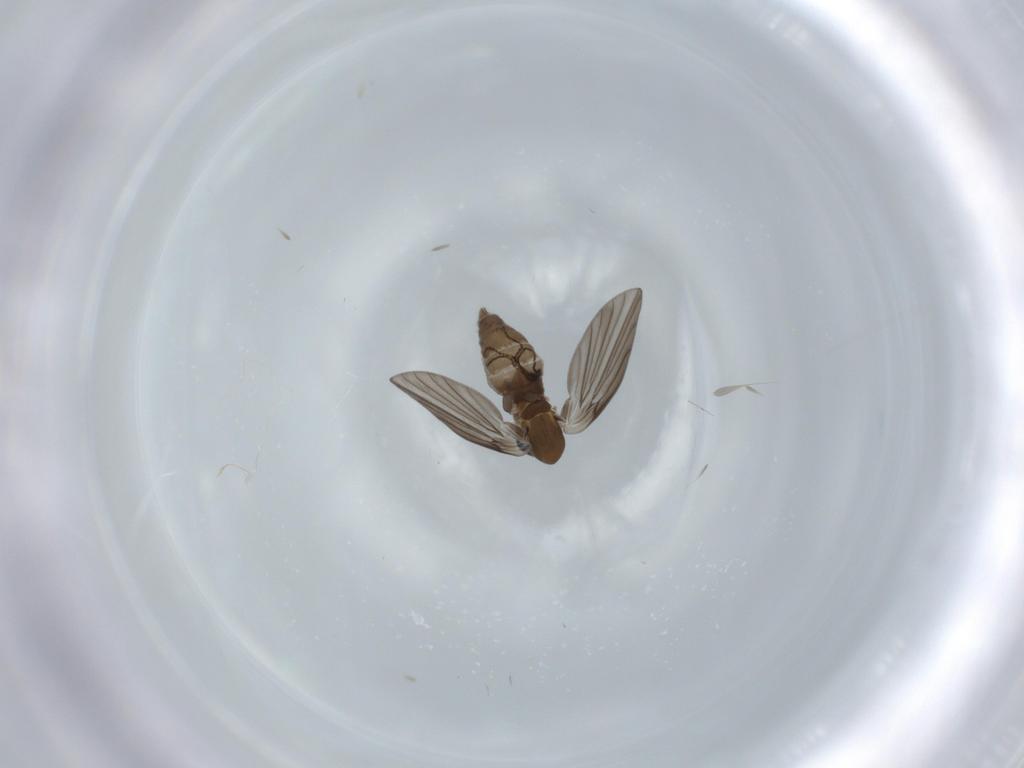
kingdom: Animalia
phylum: Arthropoda
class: Insecta
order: Diptera
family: Psychodidae
